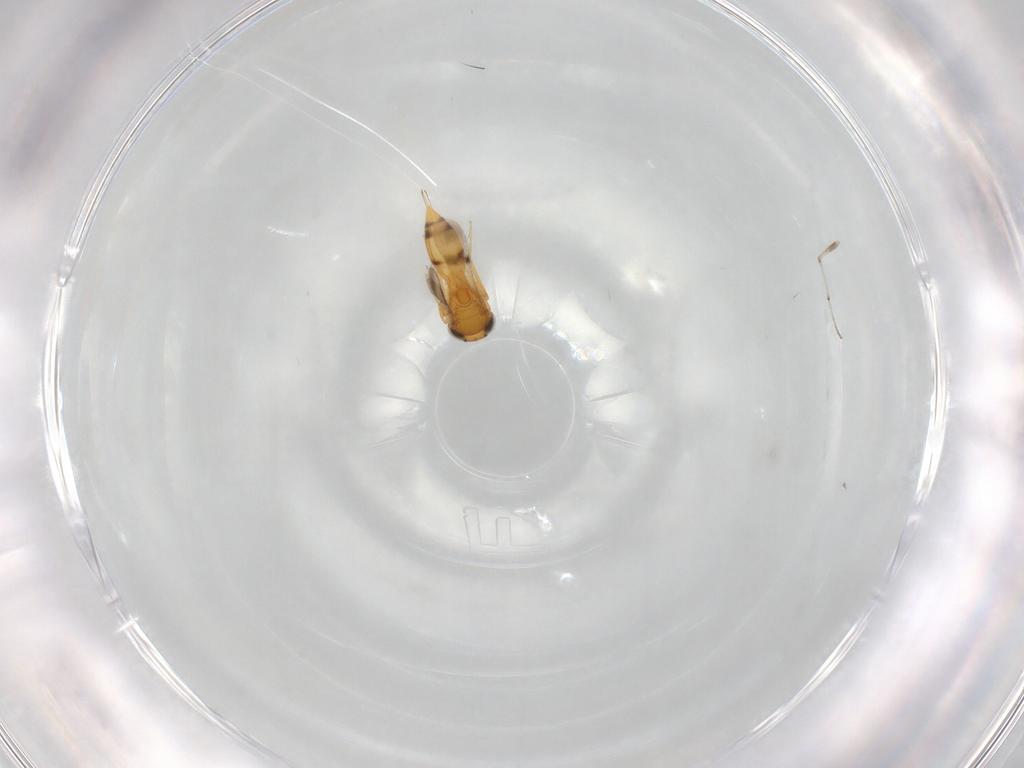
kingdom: Animalia
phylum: Arthropoda
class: Insecta
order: Hymenoptera
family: Scelionidae
